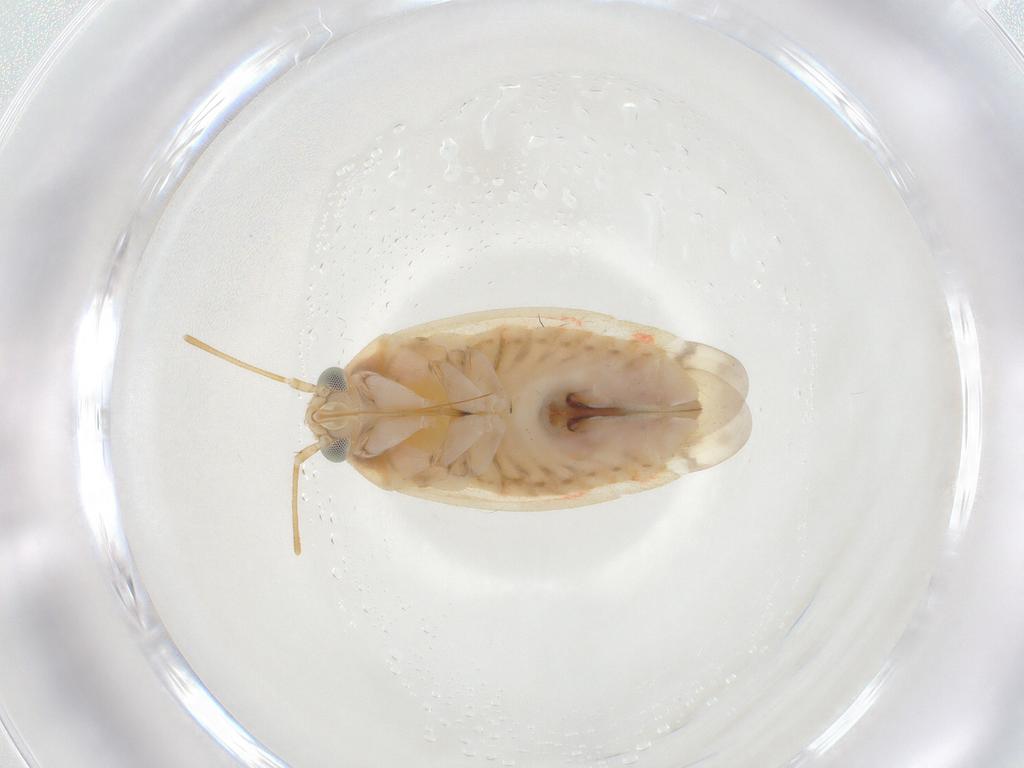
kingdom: Animalia
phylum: Arthropoda
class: Insecta
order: Hemiptera
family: Miridae
